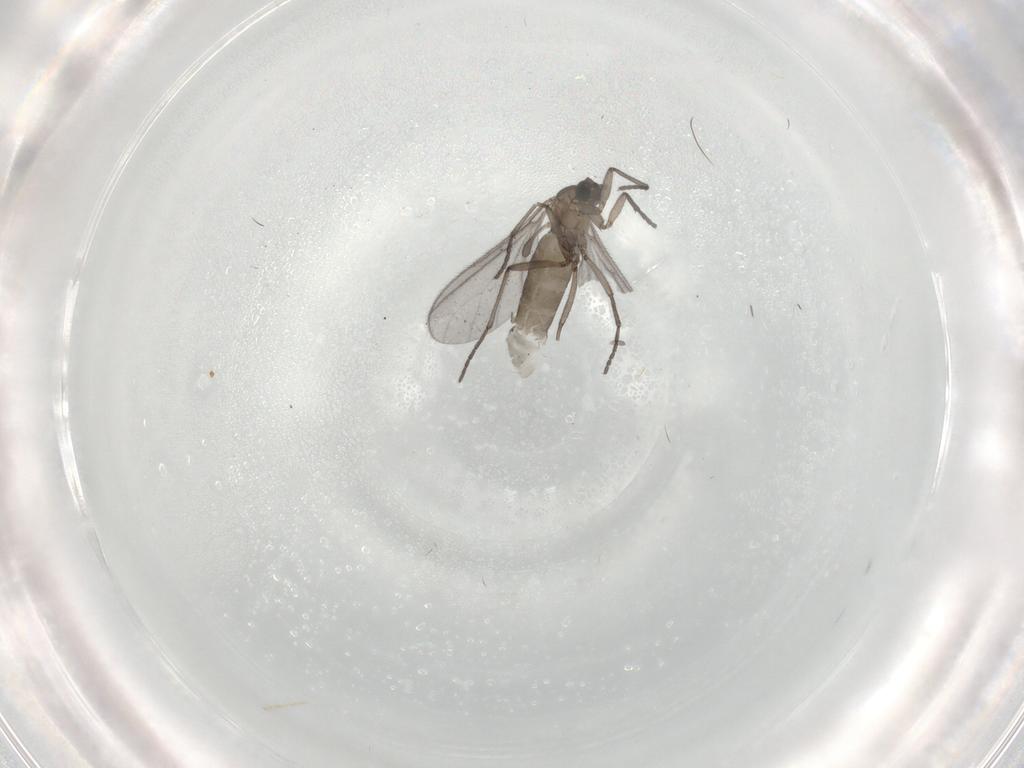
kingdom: Animalia
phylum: Arthropoda
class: Insecta
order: Diptera
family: Sciaridae
